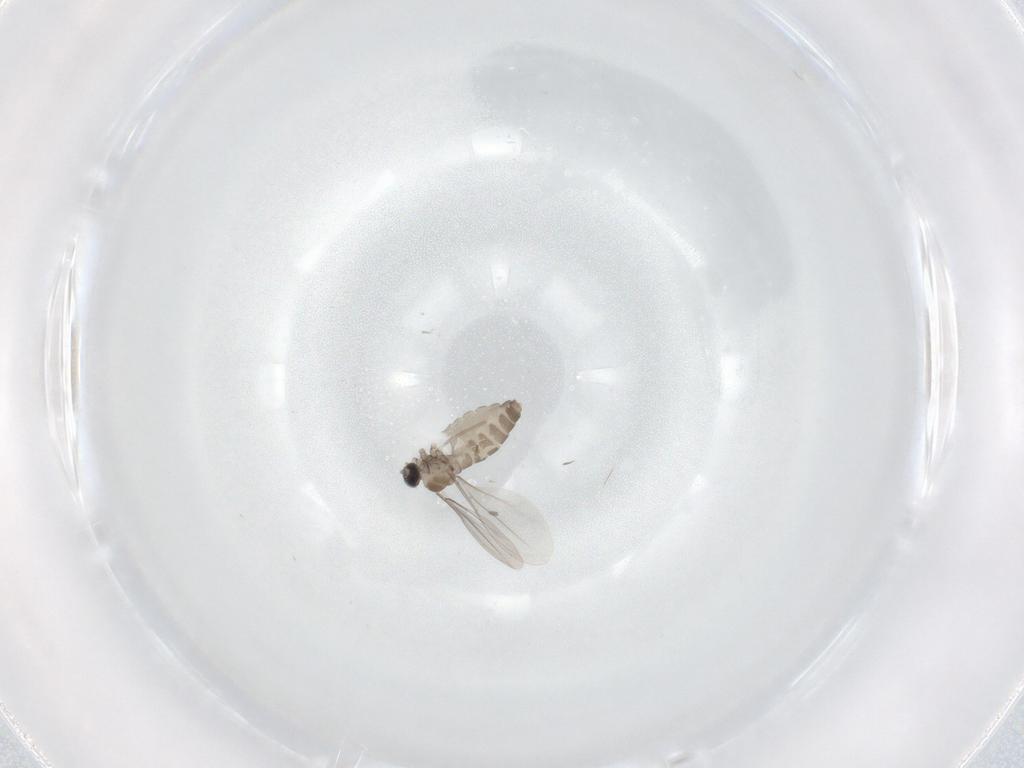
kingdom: Animalia
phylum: Arthropoda
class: Insecta
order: Diptera
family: Cecidomyiidae
